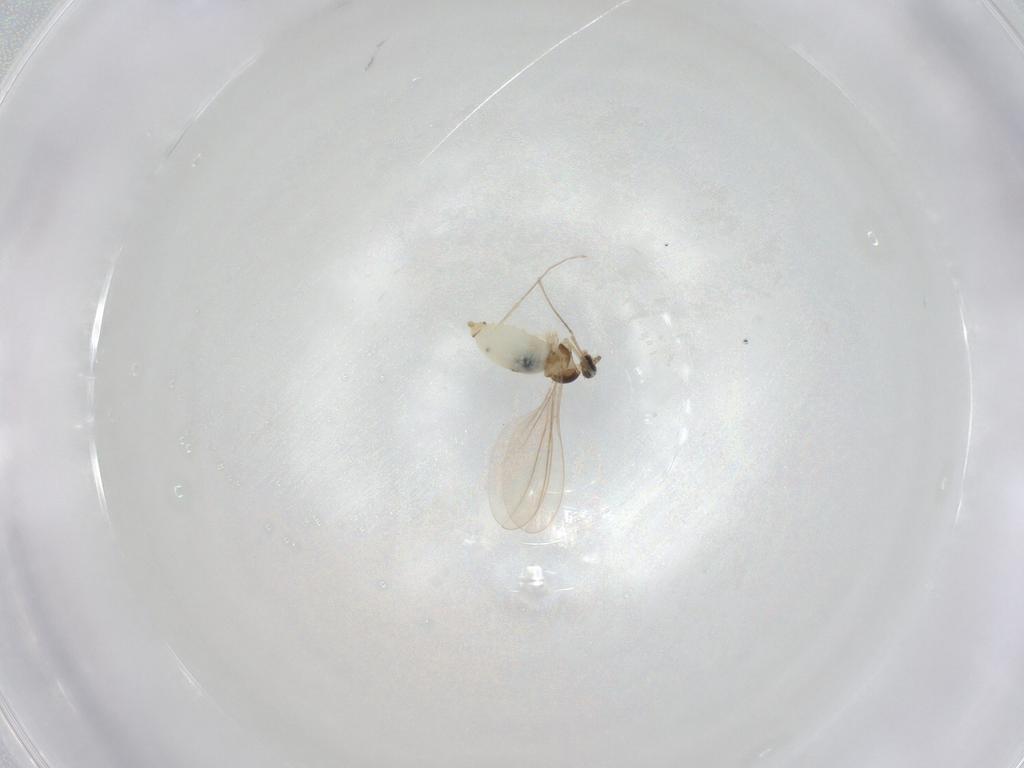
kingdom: Animalia
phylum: Arthropoda
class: Insecta
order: Diptera
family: Cecidomyiidae
